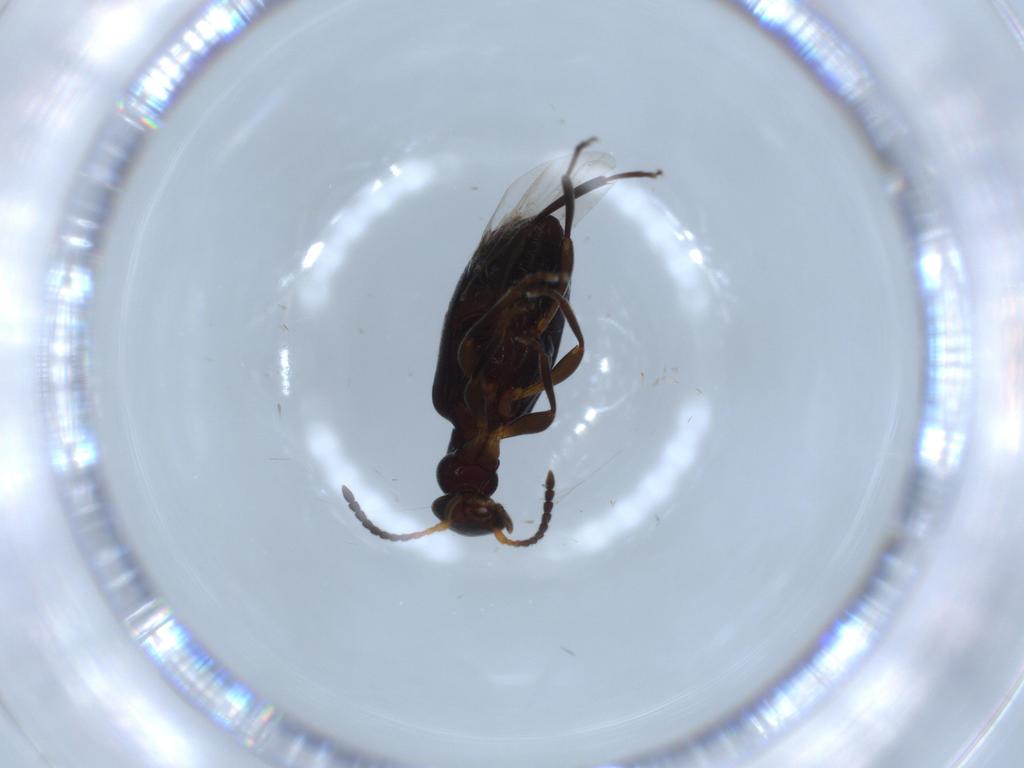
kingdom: Animalia
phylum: Arthropoda
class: Insecta
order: Coleoptera
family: Anthicidae
